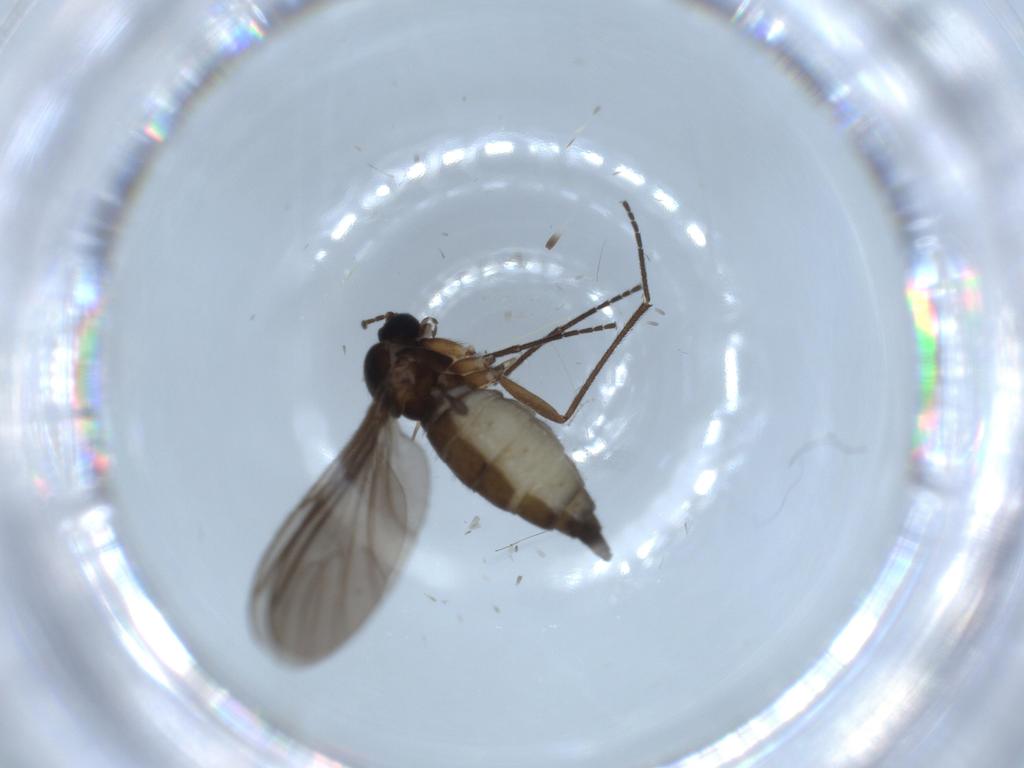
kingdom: Animalia
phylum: Arthropoda
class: Insecta
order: Diptera
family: Sciaridae
